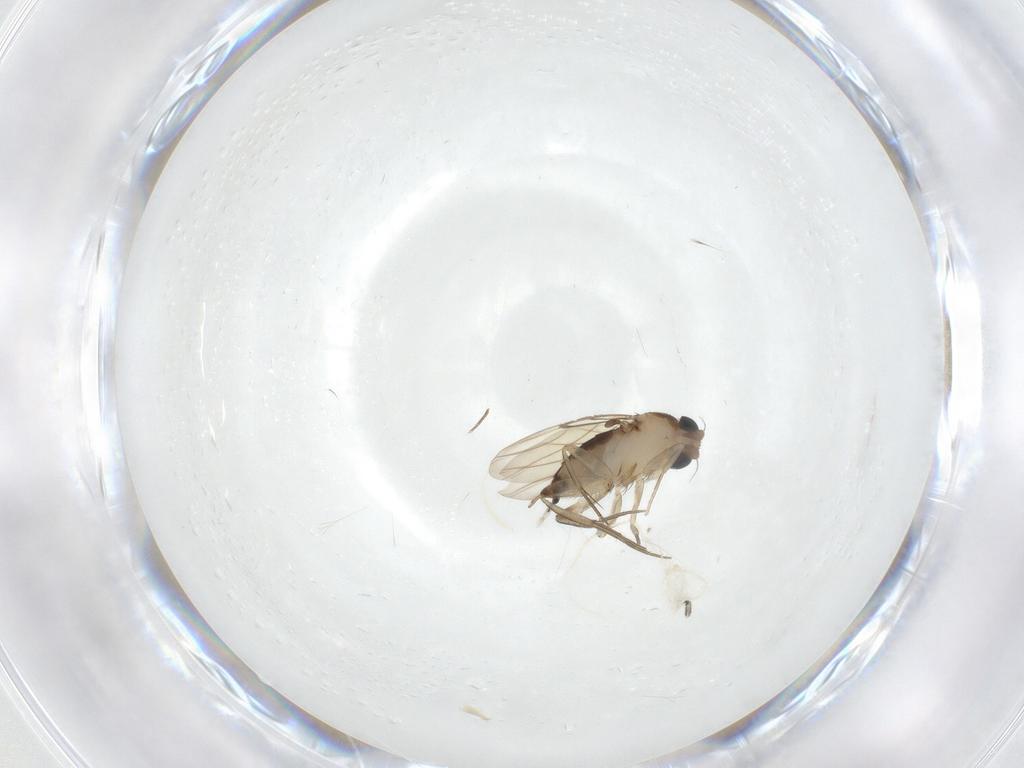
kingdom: Animalia
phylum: Arthropoda
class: Insecta
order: Diptera
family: Phoridae
